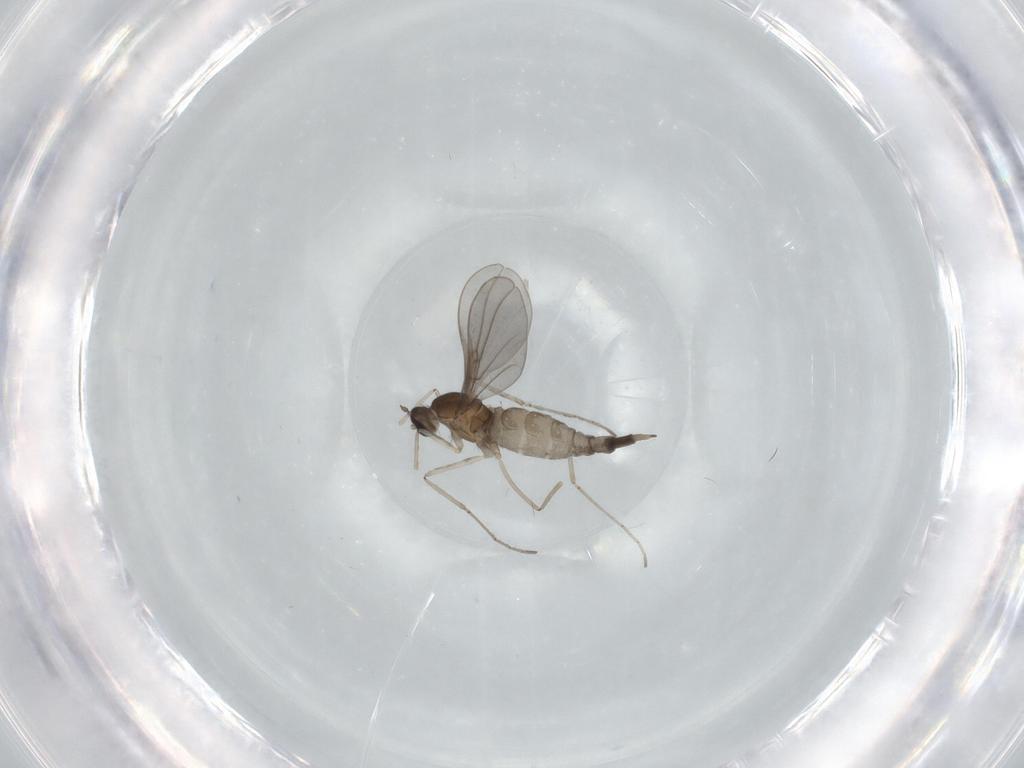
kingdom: Animalia
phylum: Arthropoda
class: Insecta
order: Diptera
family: Cecidomyiidae
